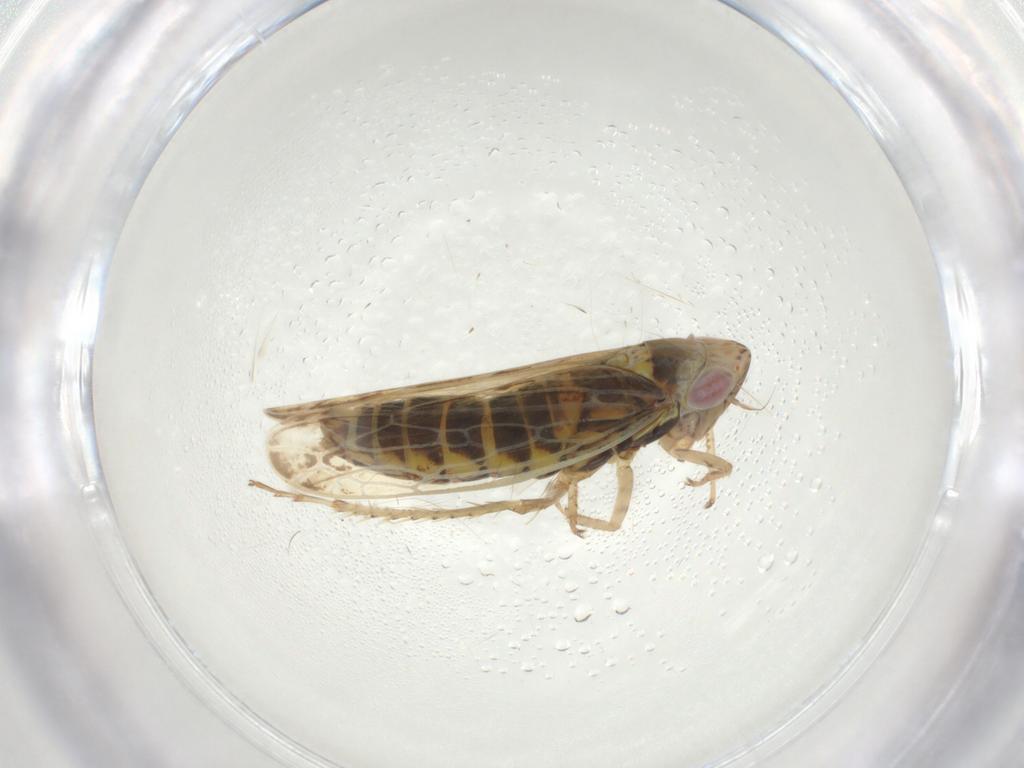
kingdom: Animalia
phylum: Arthropoda
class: Insecta
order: Hemiptera
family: Cicadellidae
